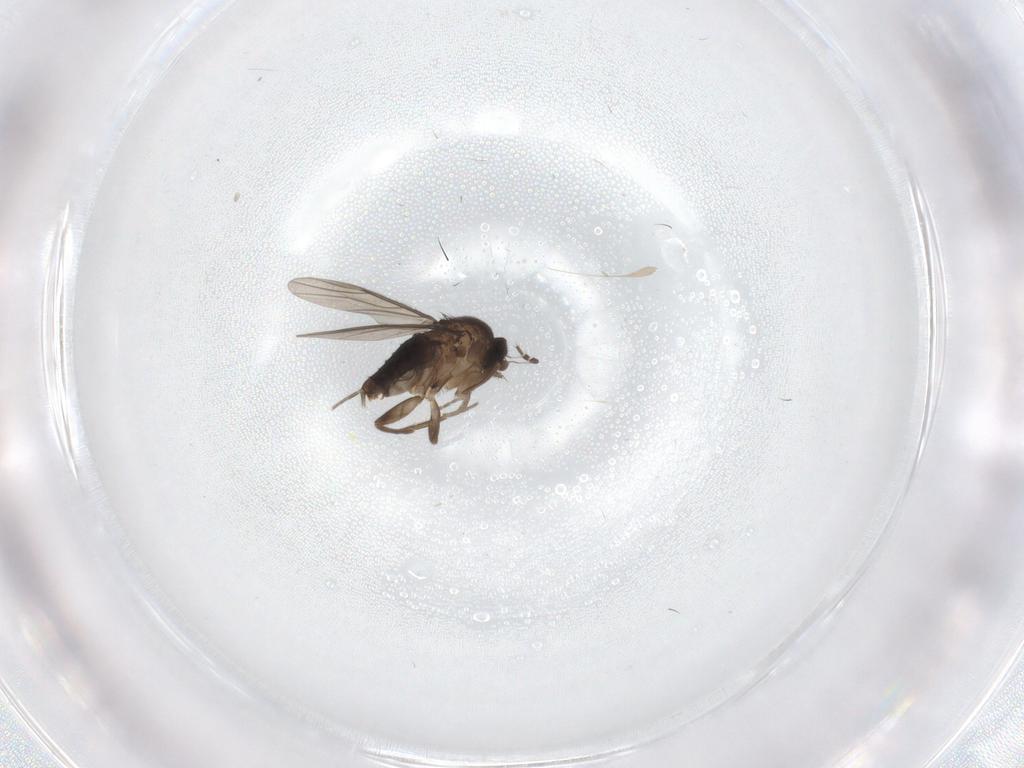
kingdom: Animalia
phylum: Arthropoda
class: Insecta
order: Diptera
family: Phoridae
